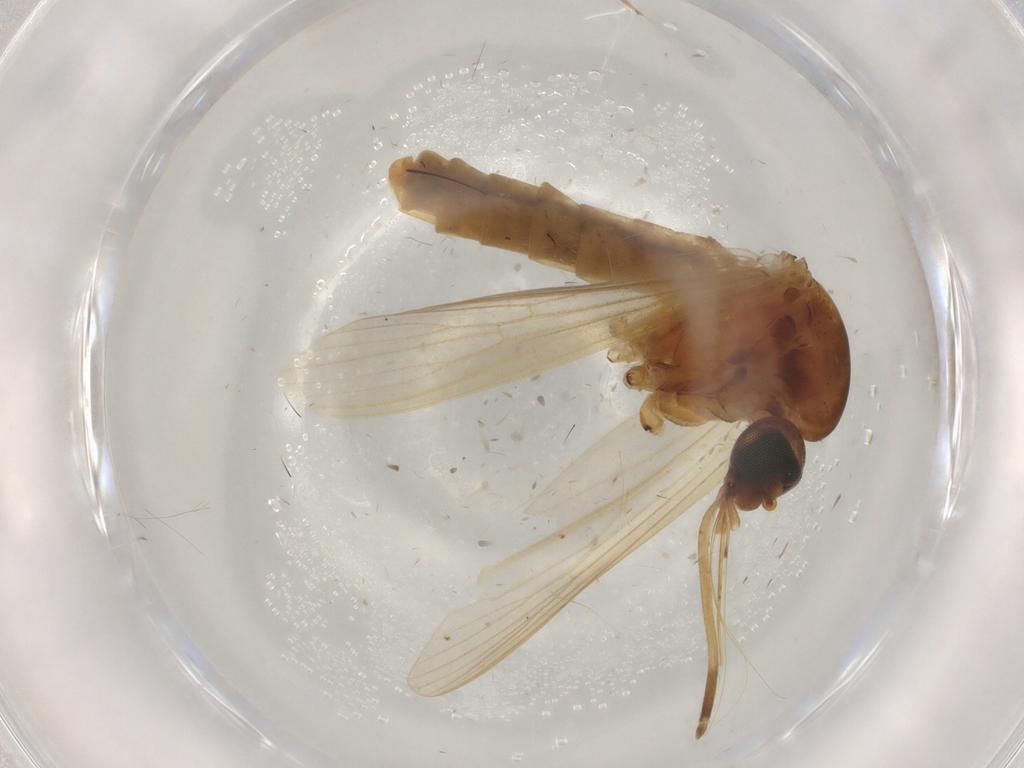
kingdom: Animalia
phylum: Arthropoda
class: Insecta
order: Diptera
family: Chloropidae
